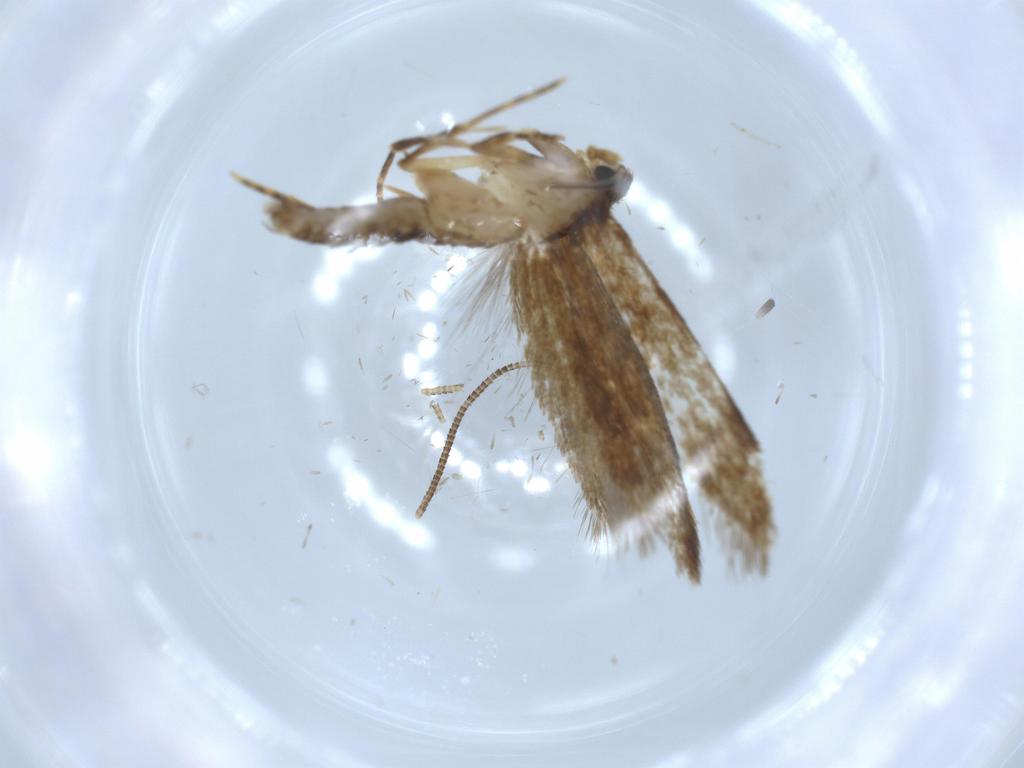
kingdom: Animalia
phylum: Arthropoda
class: Insecta
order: Lepidoptera
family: Tineidae
